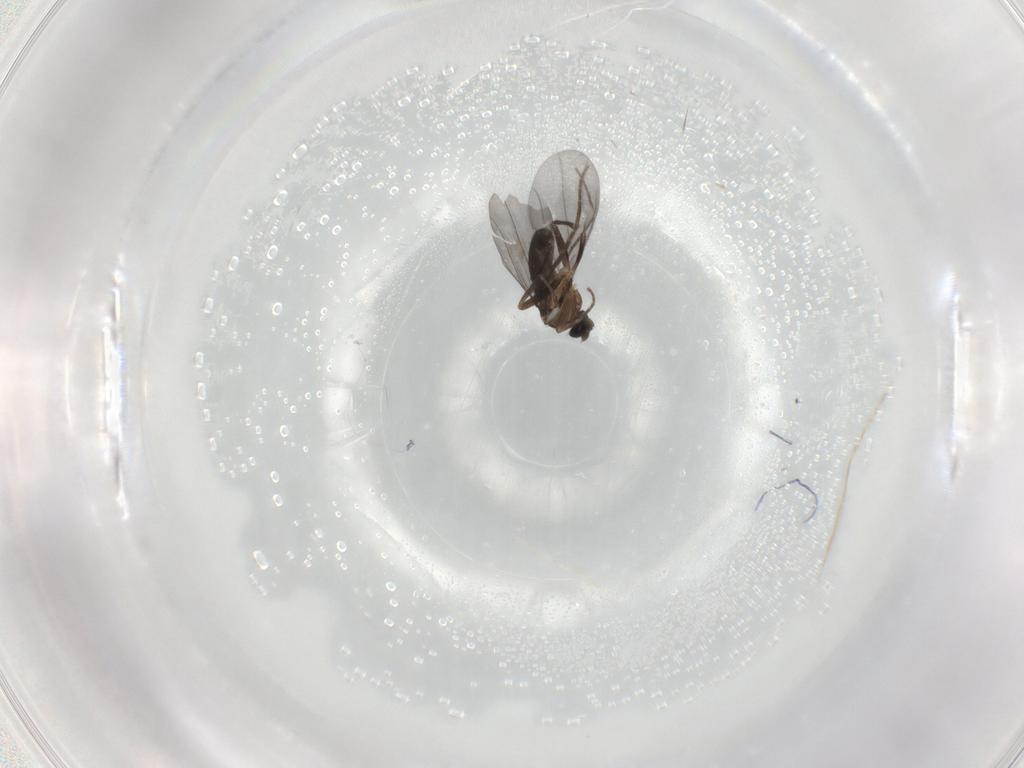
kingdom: Animalia
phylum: Arthropoda
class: Insecta
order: Diptera
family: Phoridae
